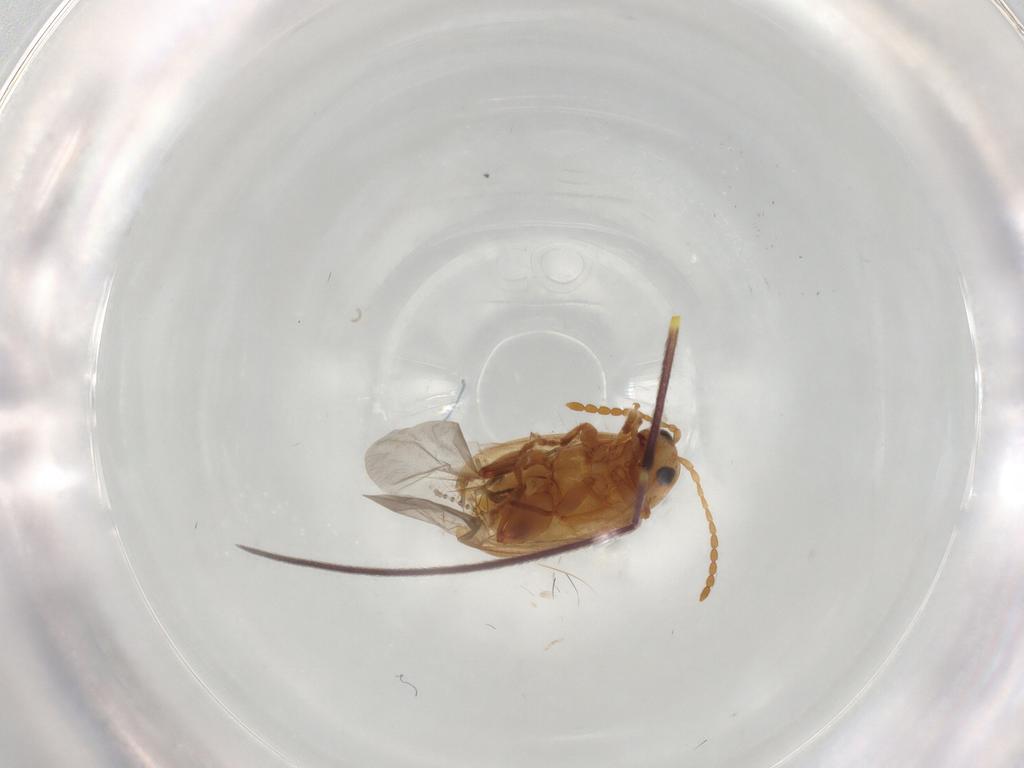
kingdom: Animalia
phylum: Arthropoda
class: Insecta
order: Coleoptera
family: Chrysomelidae
